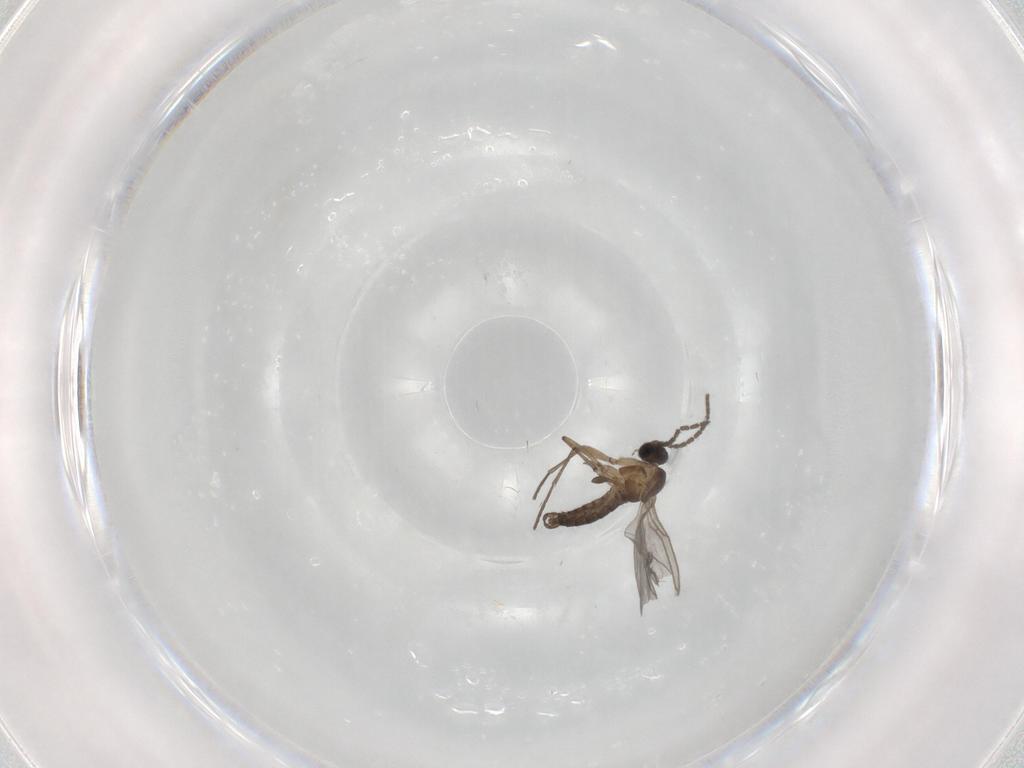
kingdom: Animalia
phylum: Arthropoda
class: Insecta
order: Diptera
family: Sciaridae
